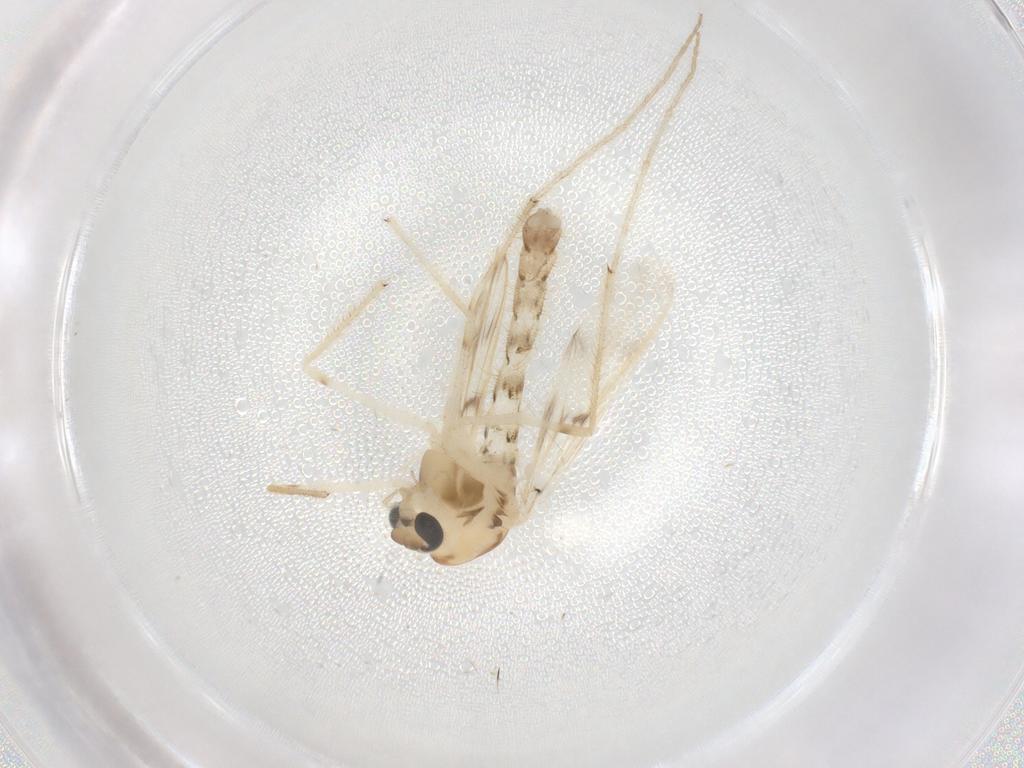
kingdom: Animalia
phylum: Arthropoda
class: Insecta
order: Diptera
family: Chironomidae
